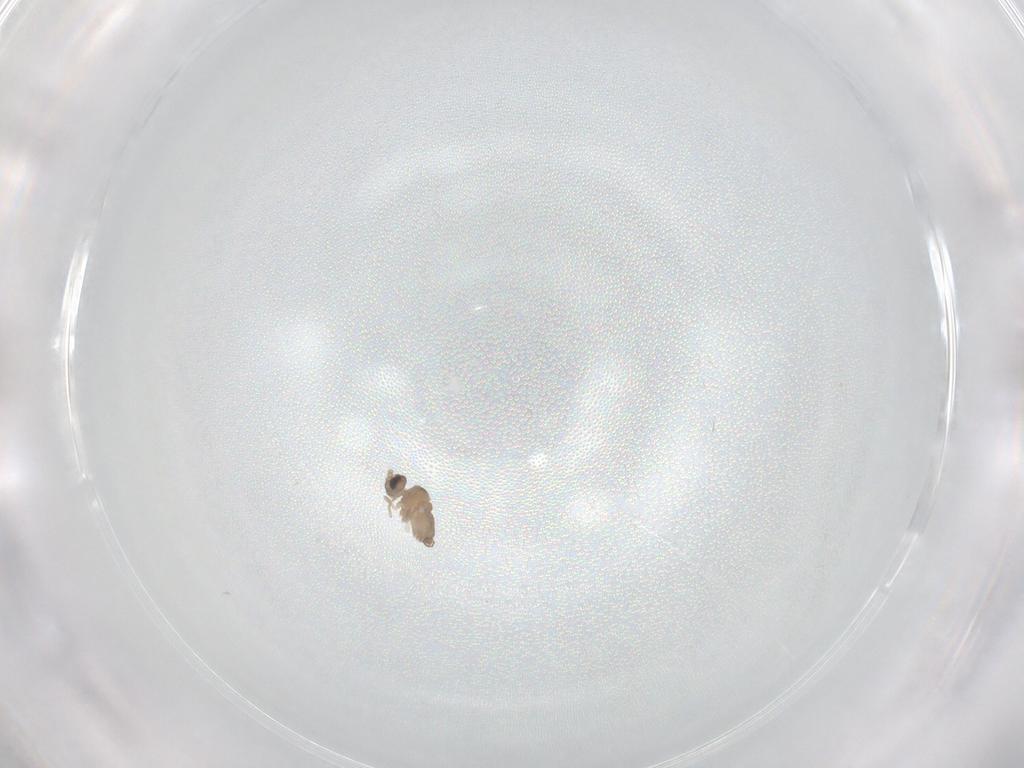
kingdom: Animalia
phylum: Arthropoda
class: Insecta
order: Diptera
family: Cecidomyiidae
